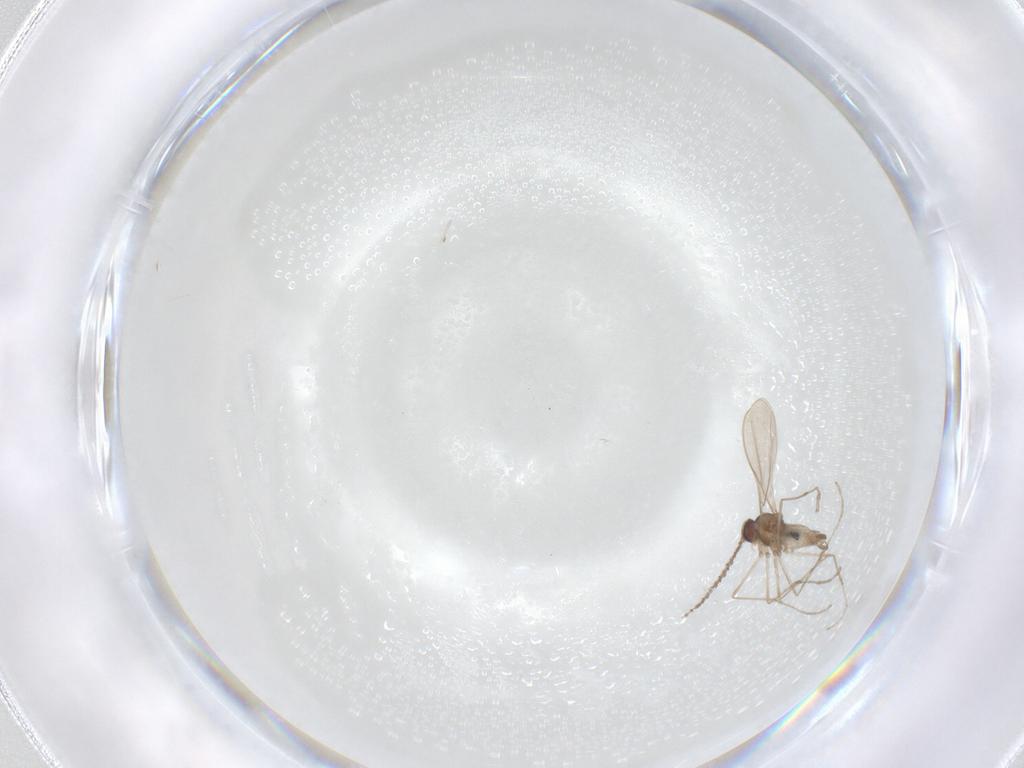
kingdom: Animalia
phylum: Arthropoda
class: Insecta
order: Diptera
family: Cecidomyiidae
